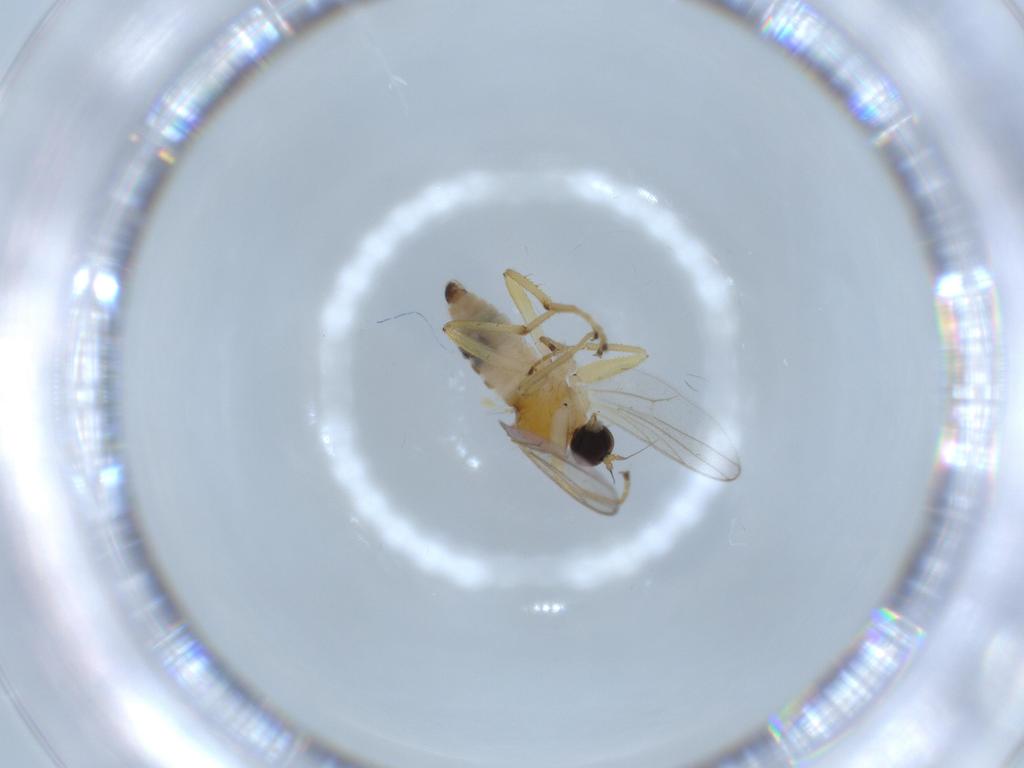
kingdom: Animalia
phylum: Arthropoda
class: Insecta
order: Diptera
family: Hybotidae
